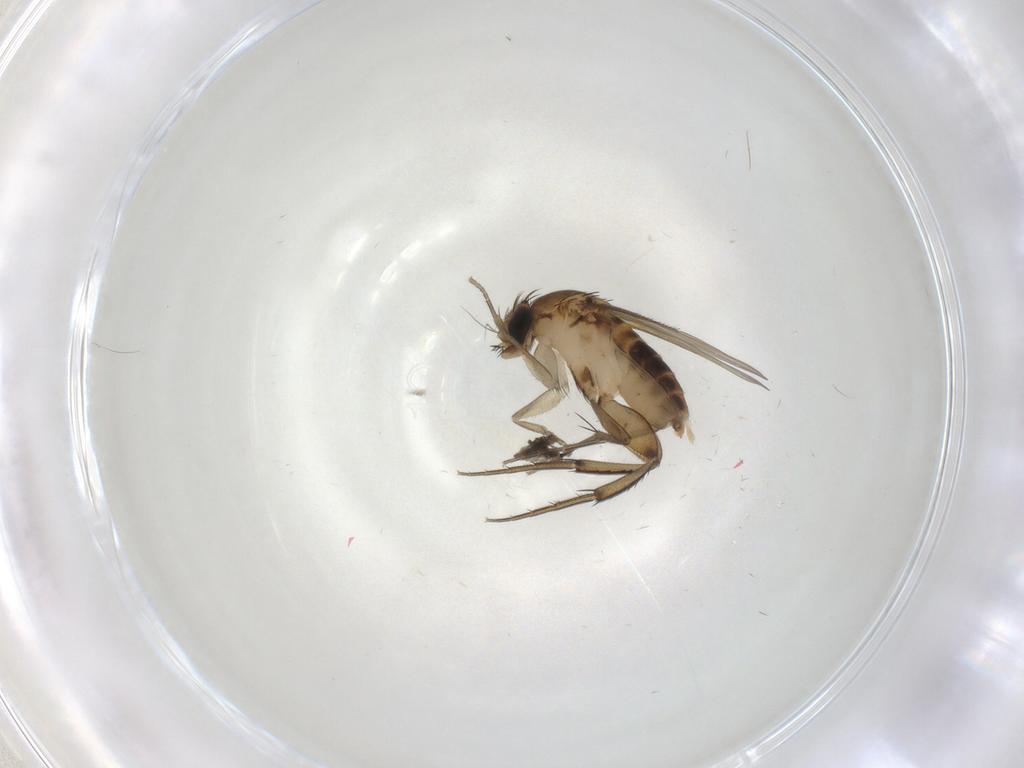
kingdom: Animalia
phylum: Arthropoda
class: Insecta
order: Diptera
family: Phoridae
